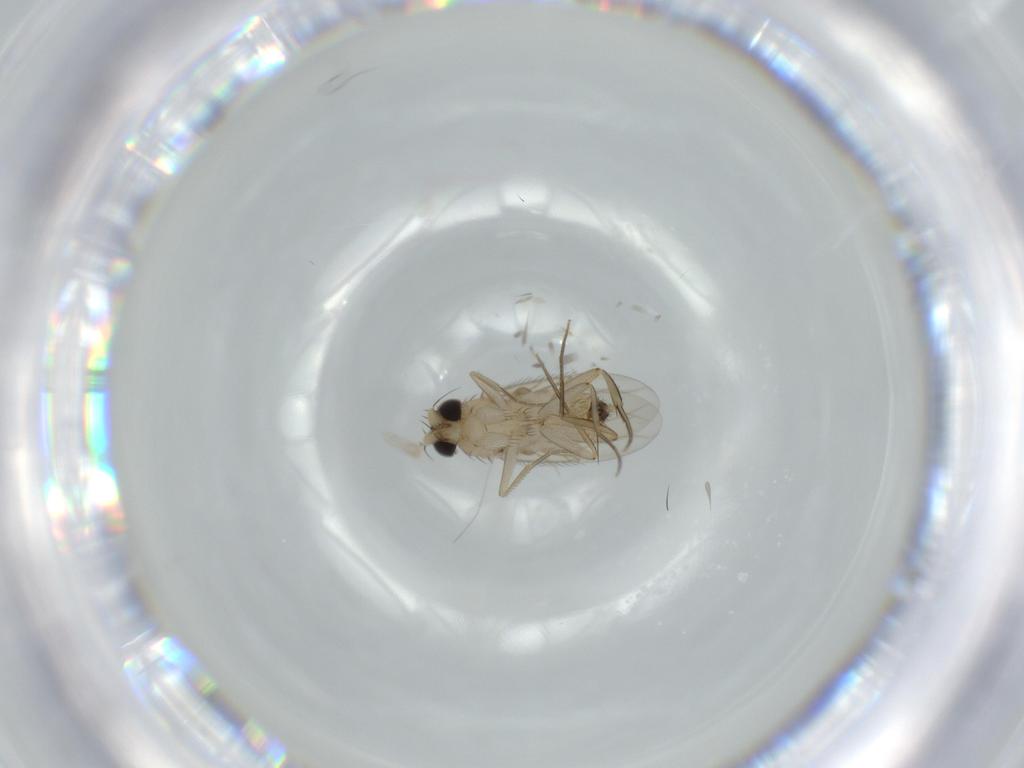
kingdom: Animalia
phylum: Arthropoda
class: Insecta
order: Diptera
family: Phoridae
